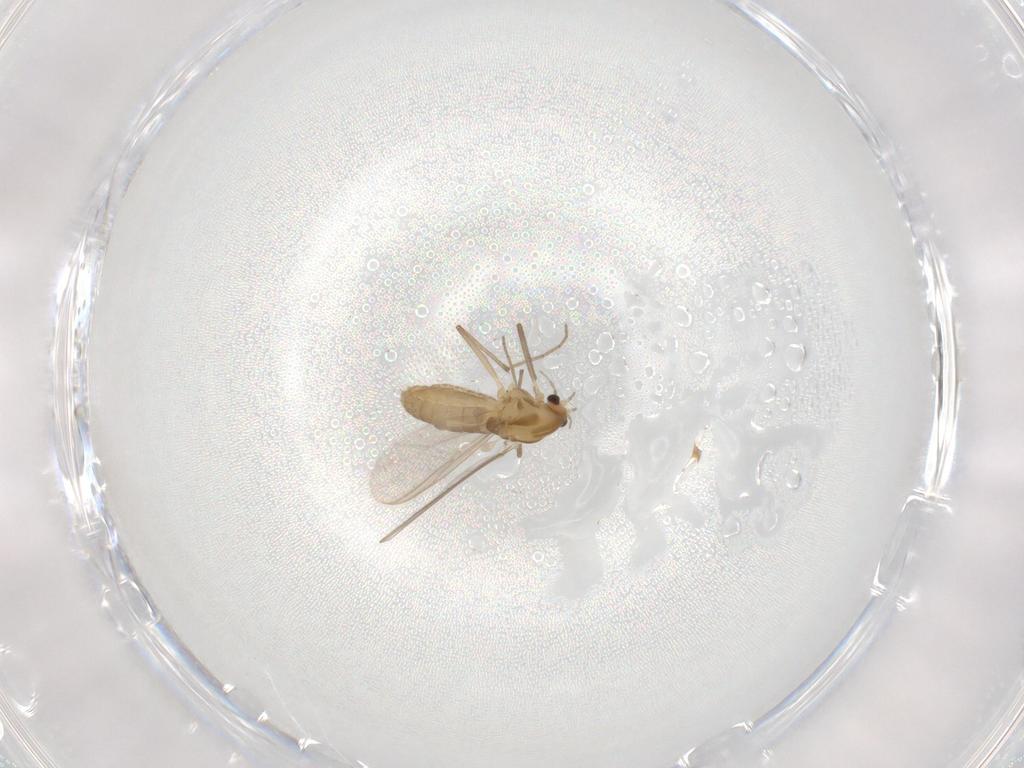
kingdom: Animalia
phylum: Arthropoda
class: Insecta
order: Diptera
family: Chironomidae
